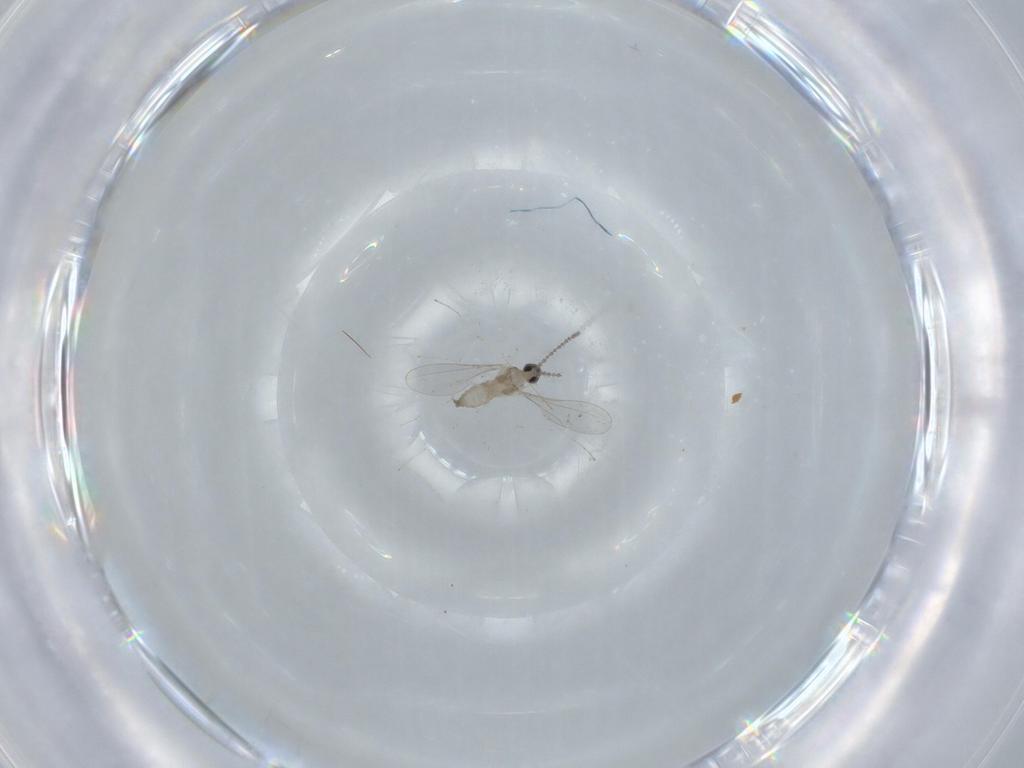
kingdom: Animalia
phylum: Arthropoda
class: Insecta
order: Diptera
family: Cecidomyiidae
